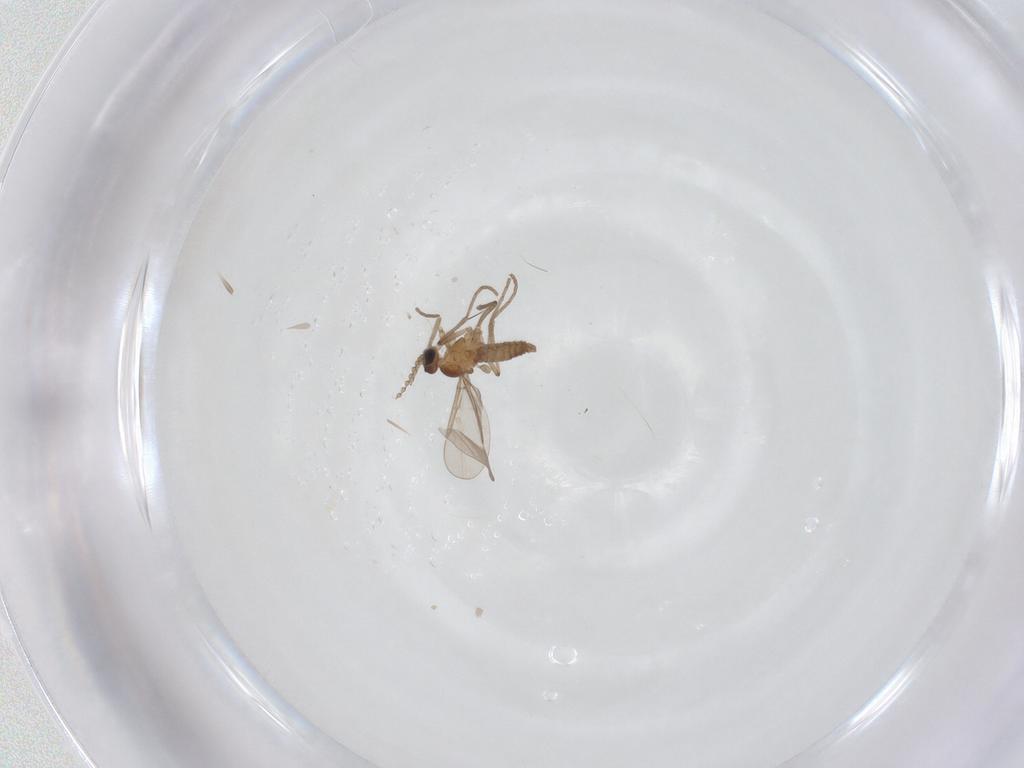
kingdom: Animalia
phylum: Arthropoda
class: Insecta
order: Diptera
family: Cecidomyiidae
